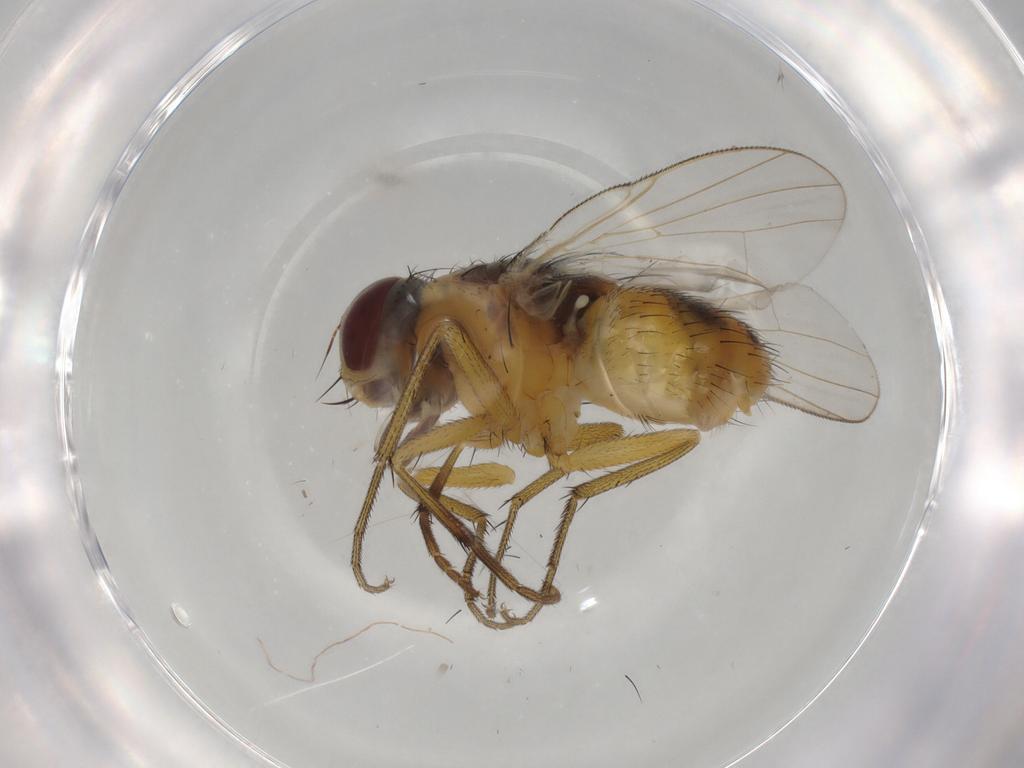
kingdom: Animalia
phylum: Arthropoda
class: Insecta
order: Diptera
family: Muscidae
